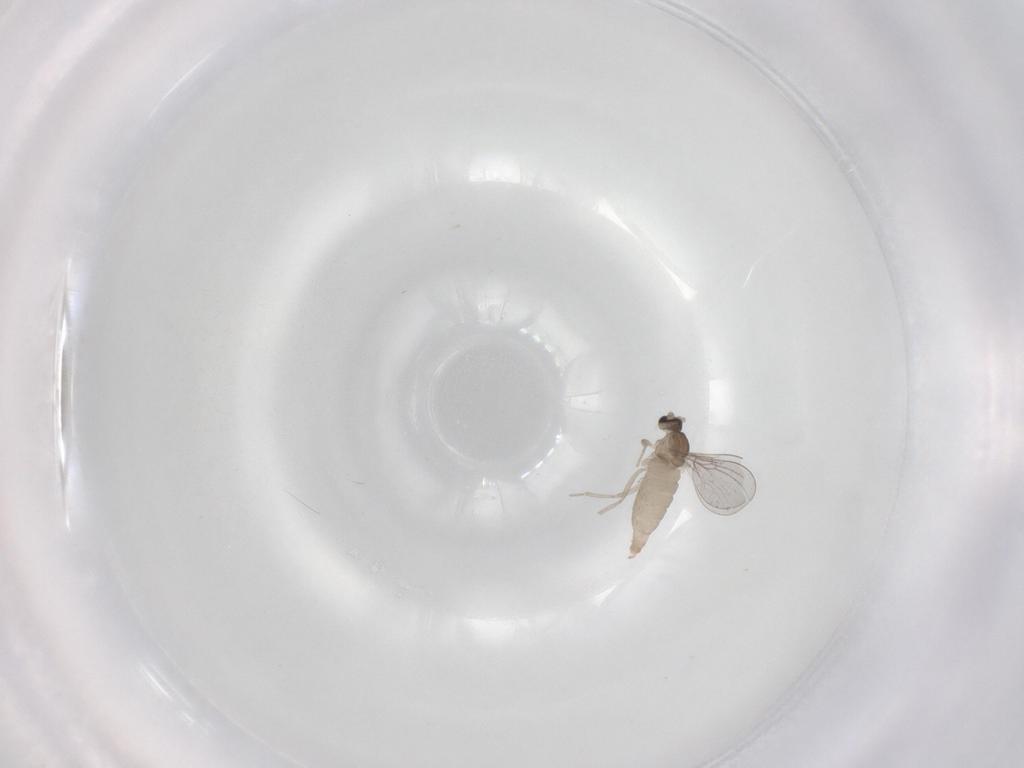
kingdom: Animalia
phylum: Arthropoda
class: Insecta
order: Diptera
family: Cecidomyiidae
